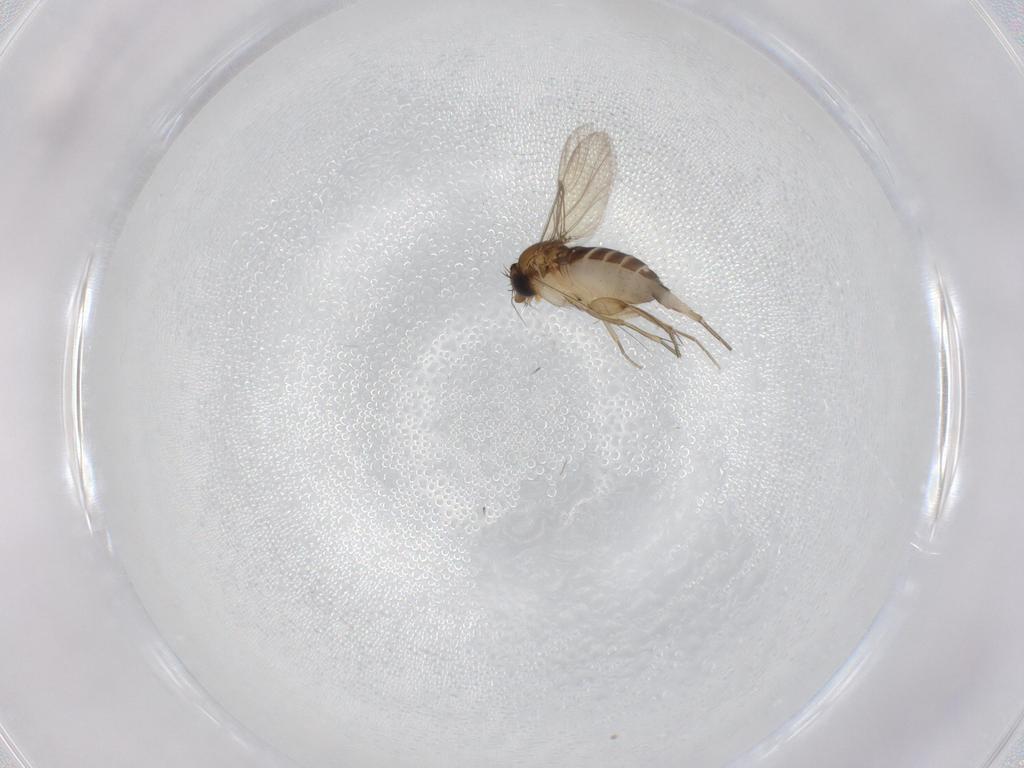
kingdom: Animalia
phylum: Arthropoda
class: Insecta
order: Diptera
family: Phoridae
